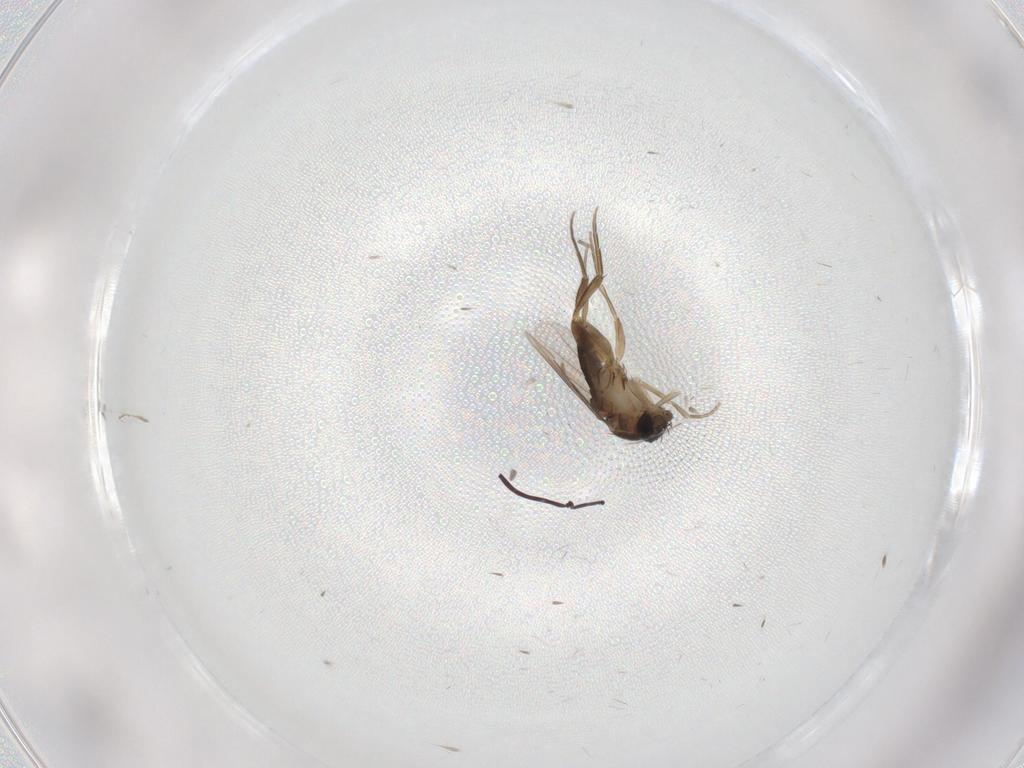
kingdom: Animalia
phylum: Arthropoda
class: Insecta
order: Diptera
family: Phoridae
